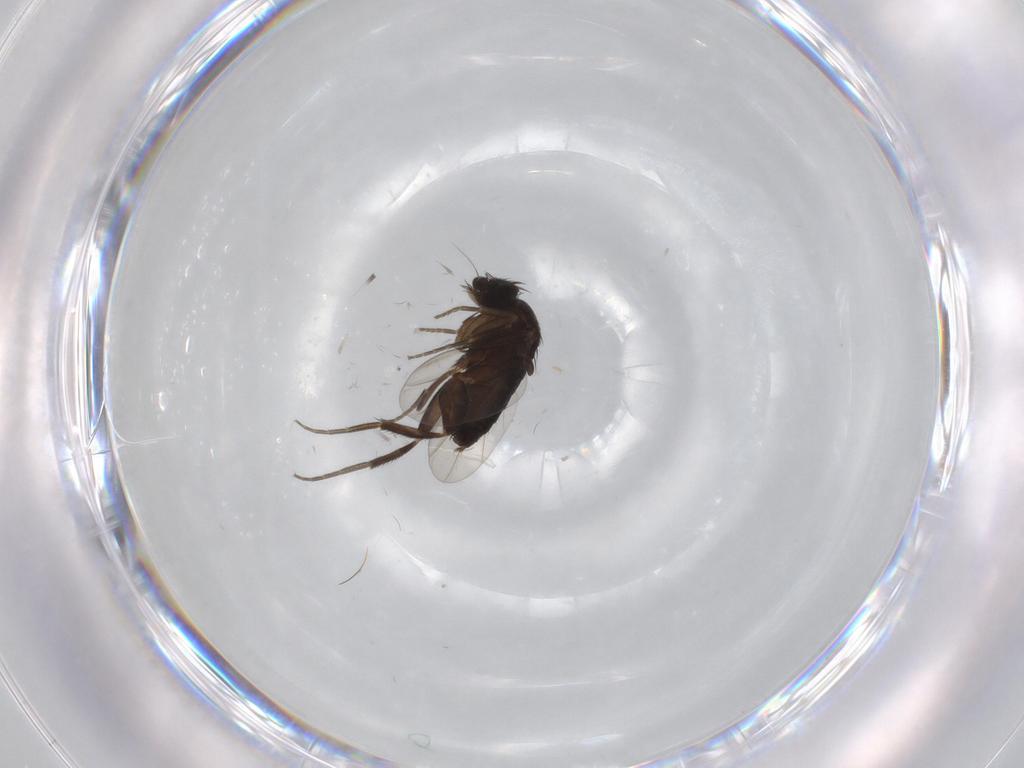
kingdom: Animalia
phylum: Arthropoda
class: Insecta
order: Diptera
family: Phoridae
